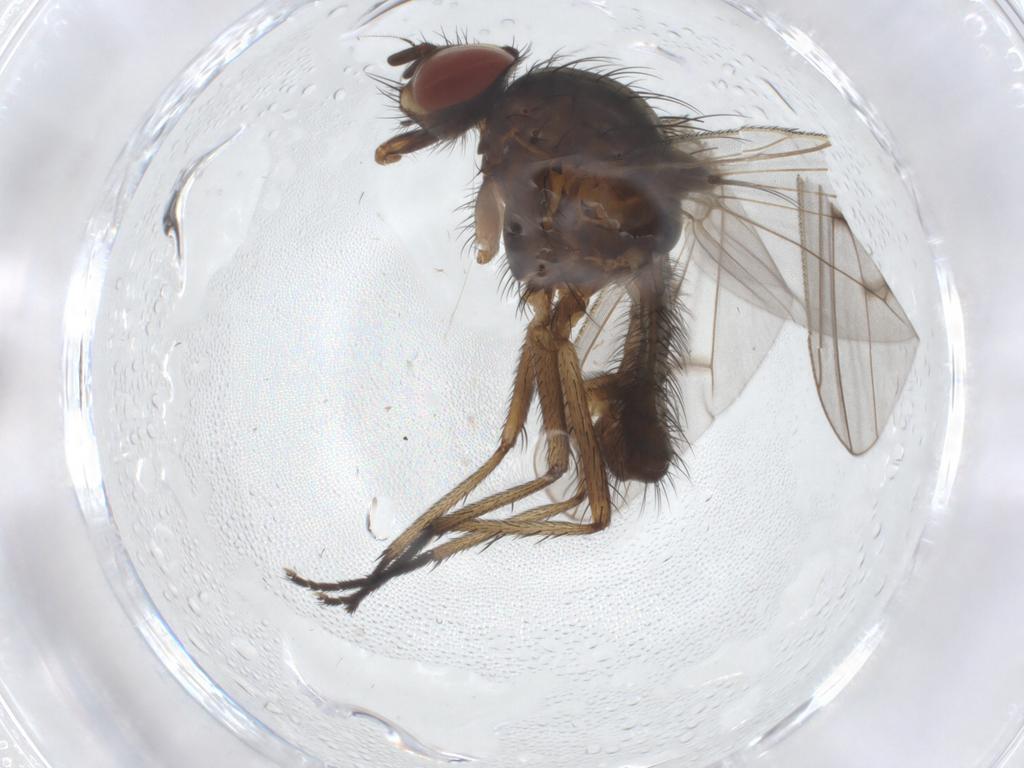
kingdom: Animalia
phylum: Arthropoda
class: Insecta
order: Diptera
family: Anthomyiidae
